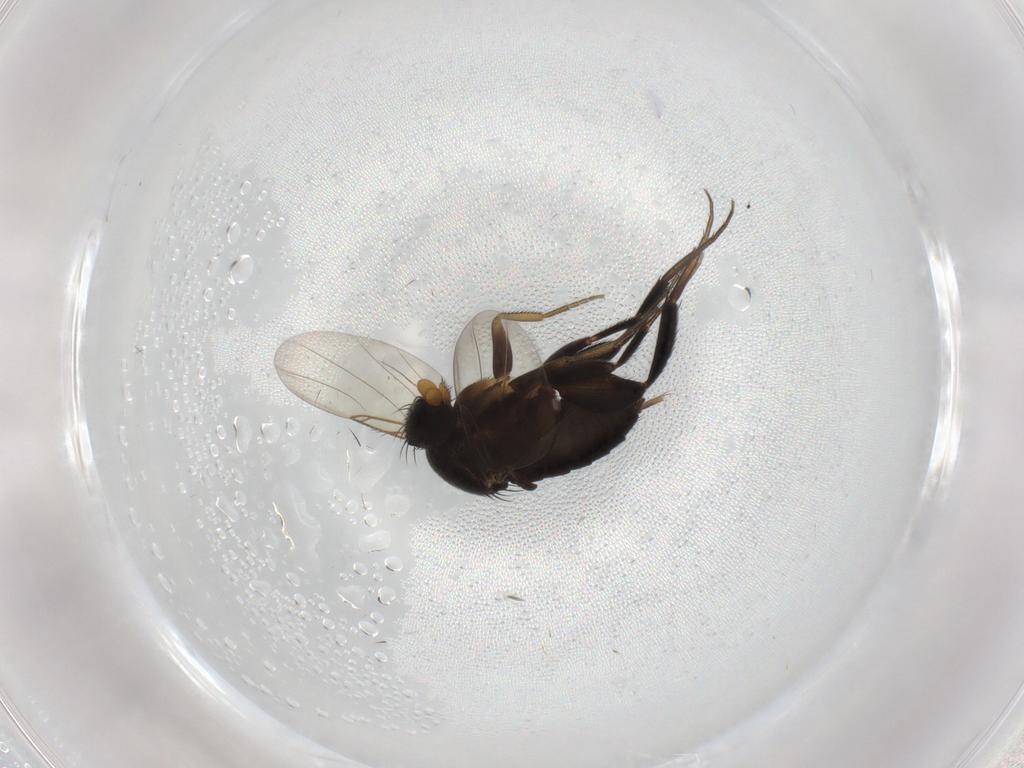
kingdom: Animalia
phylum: Arthropoda
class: Insecta
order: Diptera
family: Phoridae
